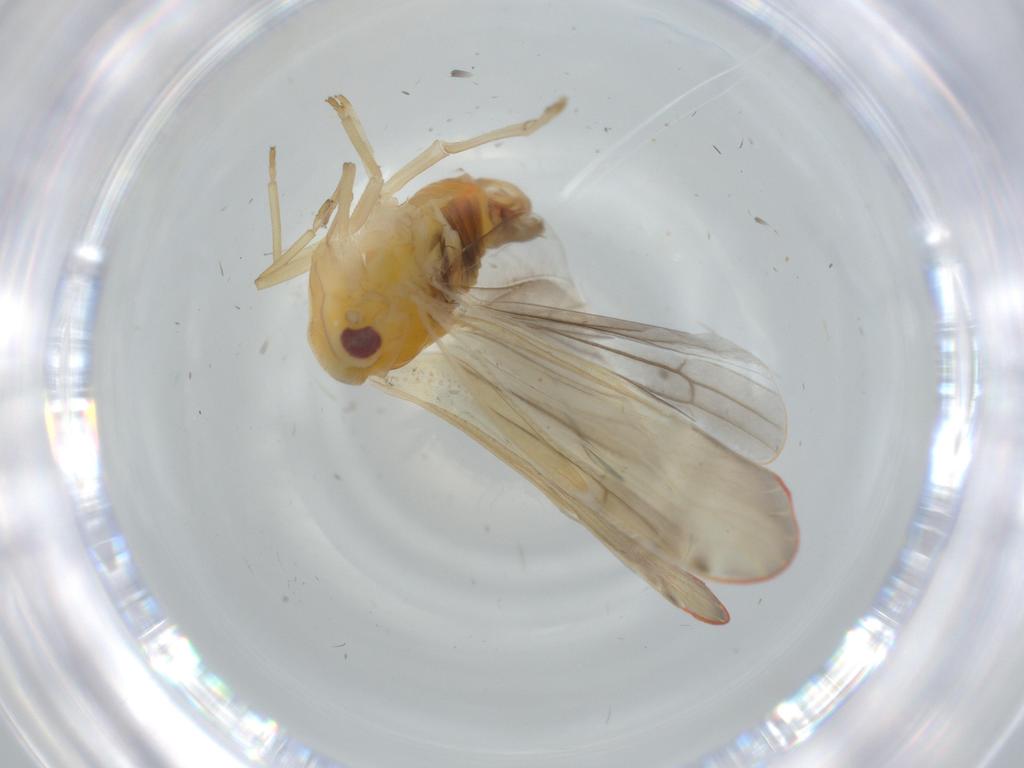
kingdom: Animalia
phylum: Arthropoda
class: Insecta
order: Hemiptera
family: Derbidae
